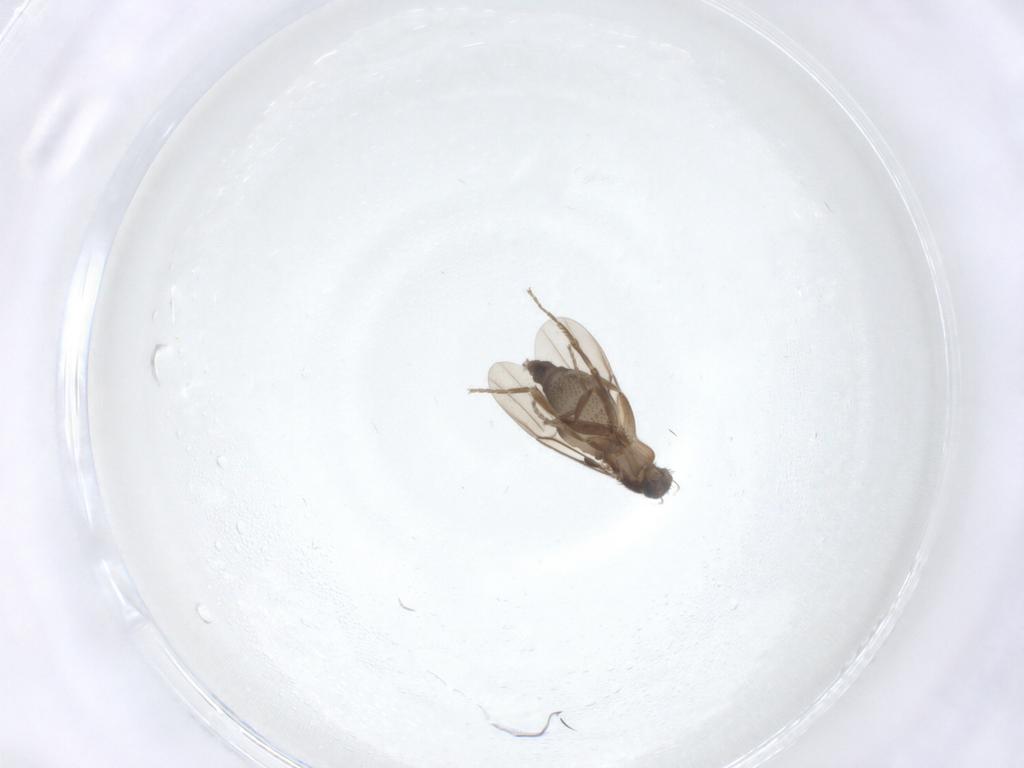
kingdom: Animalia
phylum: Arthropoda
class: Insecta
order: Diptera
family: Phoridae
